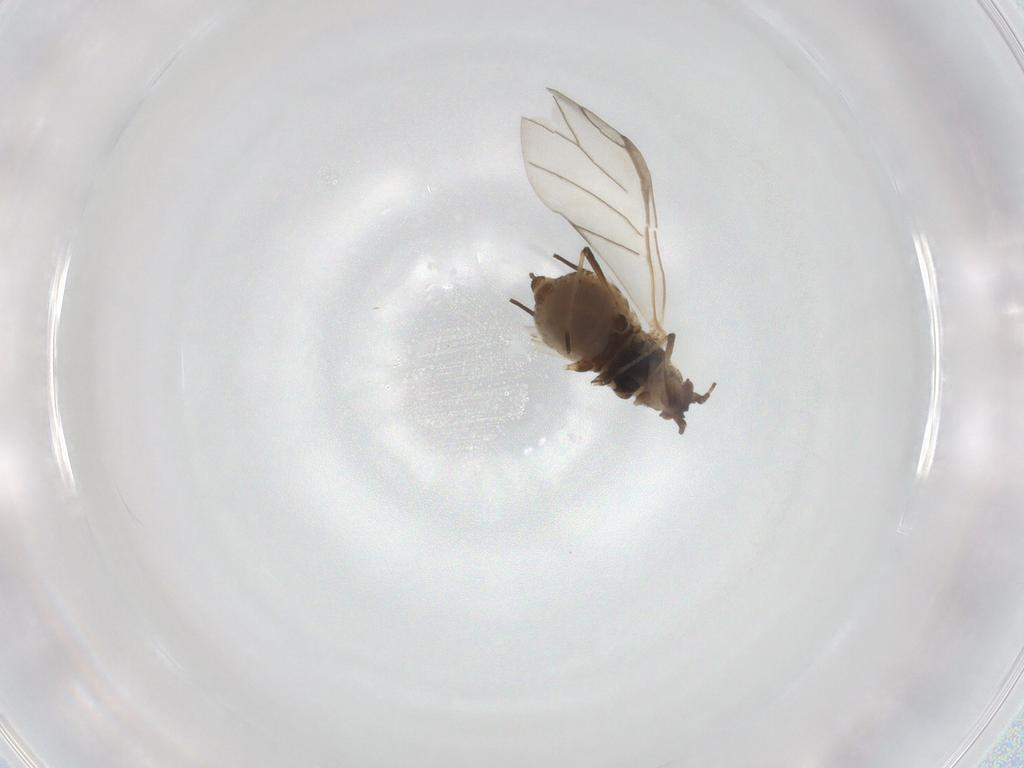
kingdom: Animalia
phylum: Arthropoda
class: Insecta
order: Hemiptera
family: Aphididae
